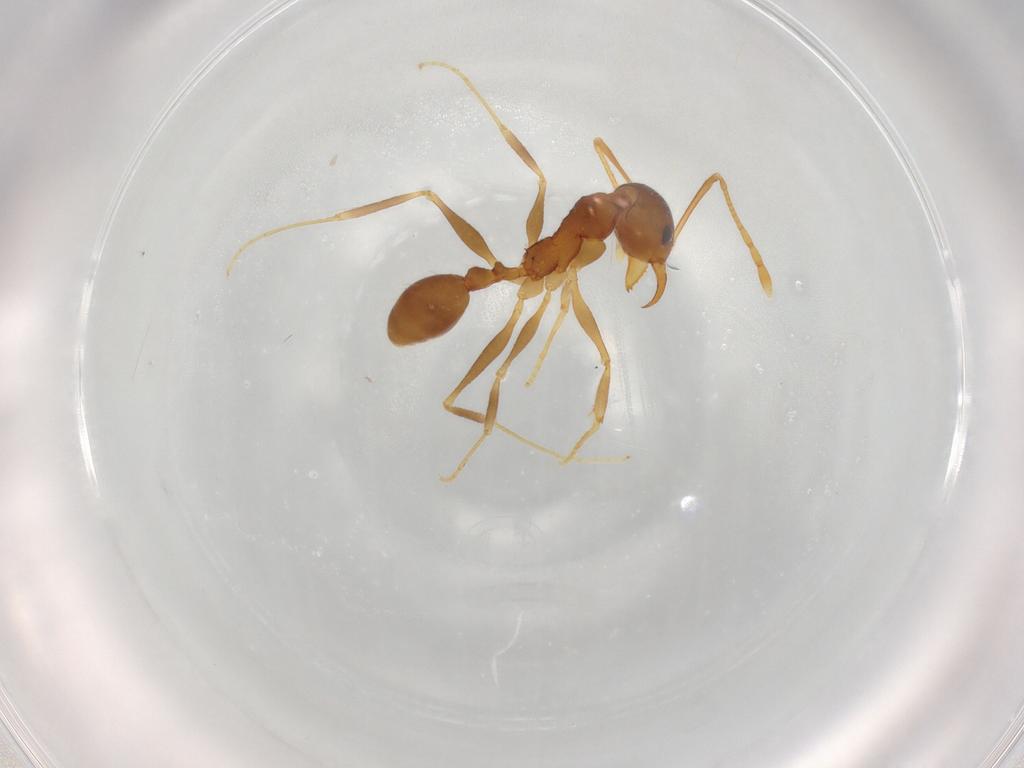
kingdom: Animalia
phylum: Arthropoda
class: Insecta
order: Hymenoptera
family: Formicidae
